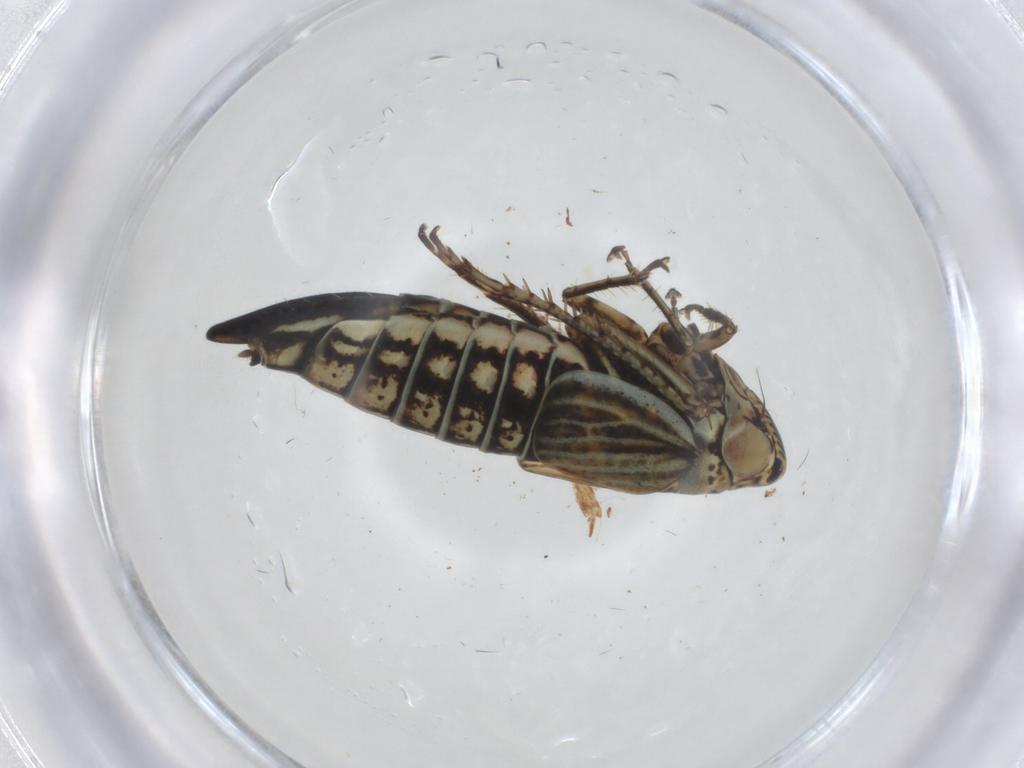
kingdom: Animalia
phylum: Arthropoda
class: Insecta
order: Hemiptera
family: Cicadellidae
